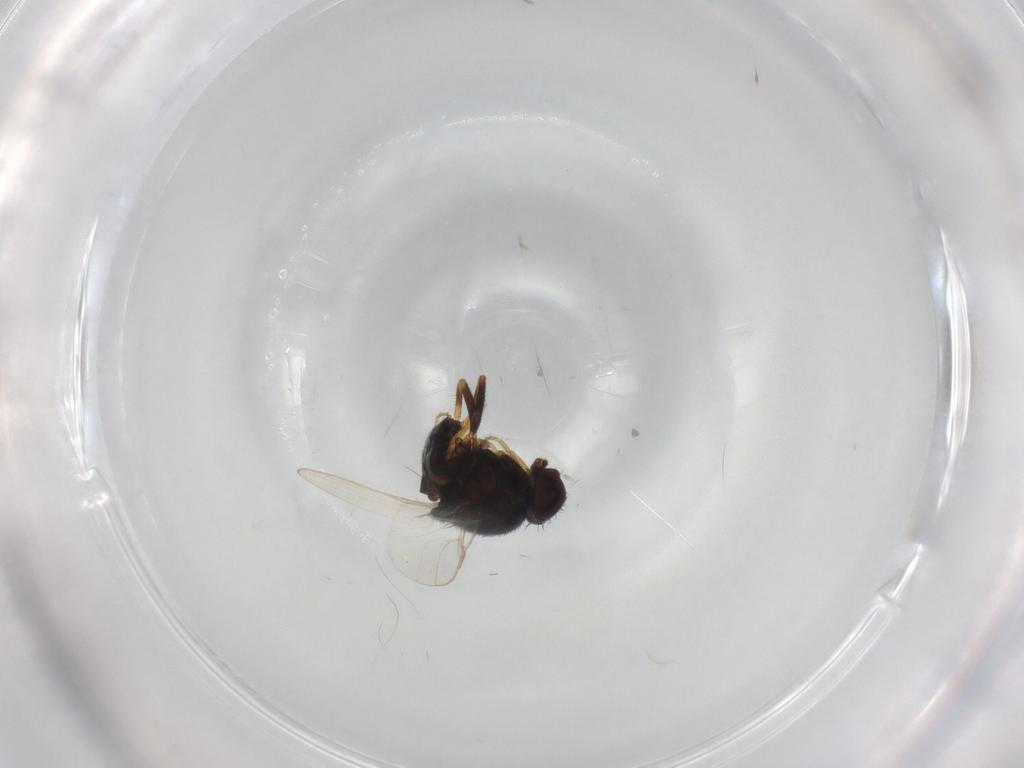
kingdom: Animalia
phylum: Arthropoda
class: Insecta
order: Diptera
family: Chloropidae
